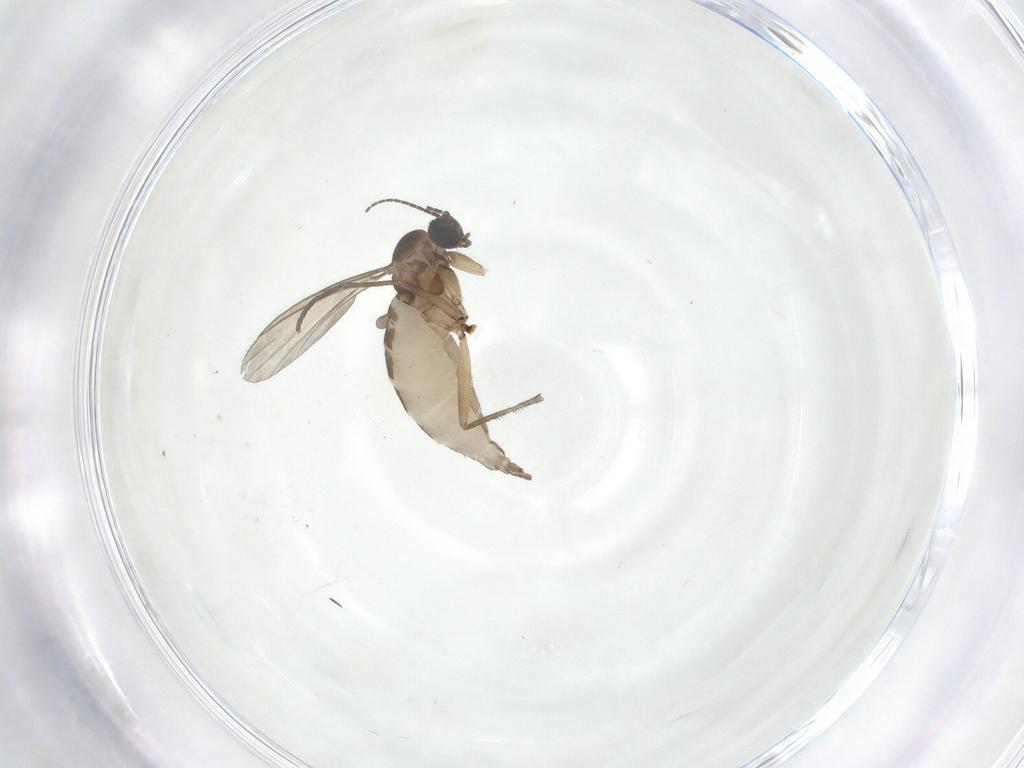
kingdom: Animalia
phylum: Arthropoda
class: Insecta
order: Diptera
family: Sciaridae
